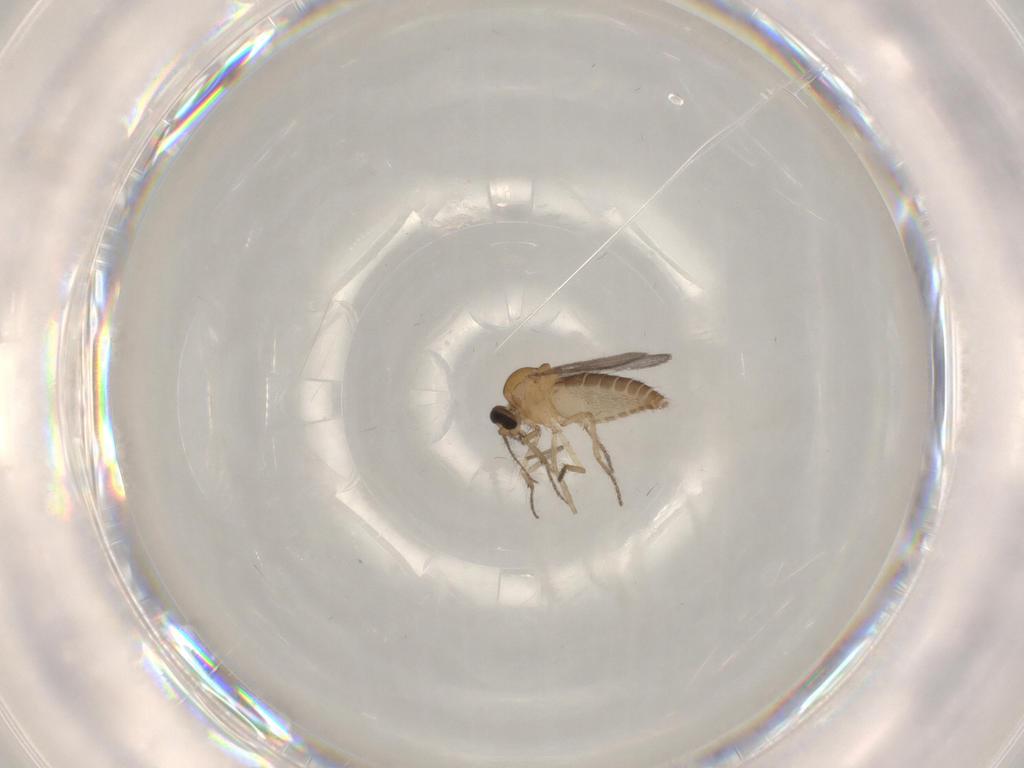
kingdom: Animalia
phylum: Arthropoda
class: Insecta
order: Diptera
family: Ceratopogonidae
